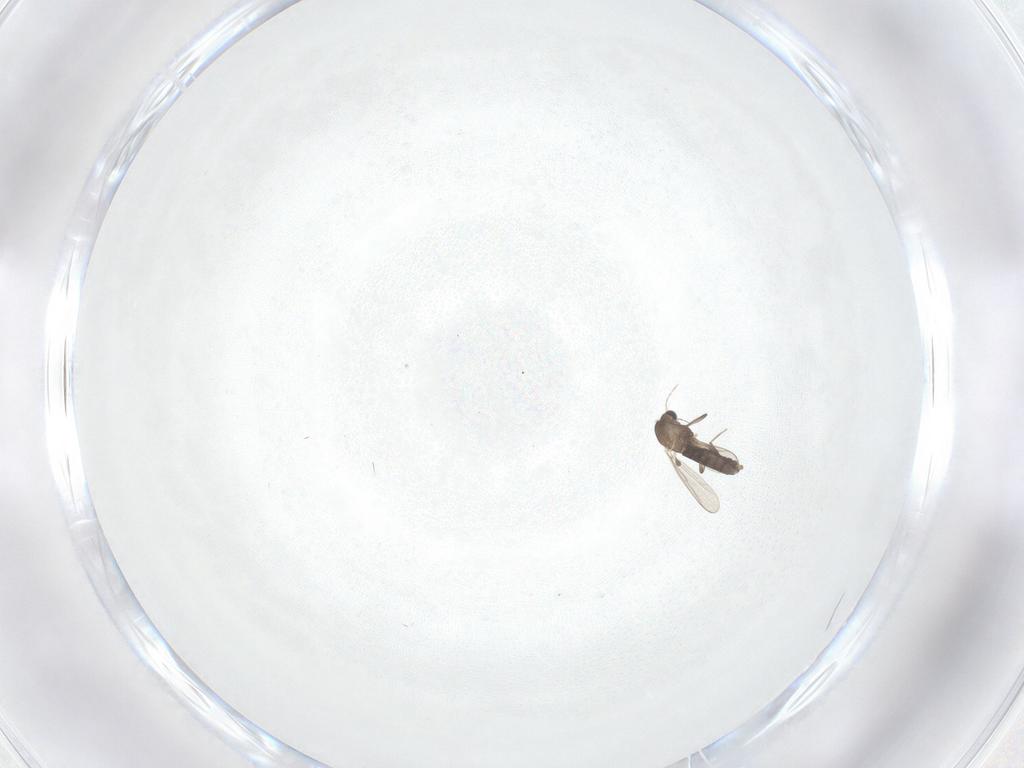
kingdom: Animalia
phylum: Arthropoda
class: Insecta
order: Diptera
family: Chironomidae
